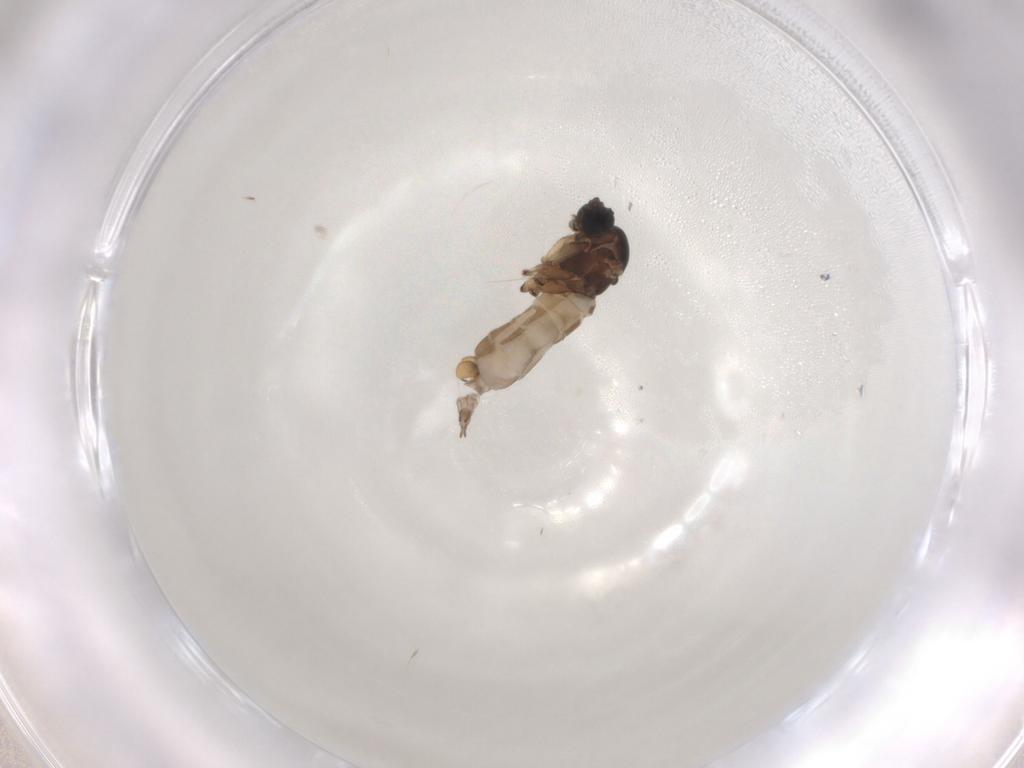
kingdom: Animalia
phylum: Arthropoda
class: Insecta
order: Diptera
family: Sciaridae
